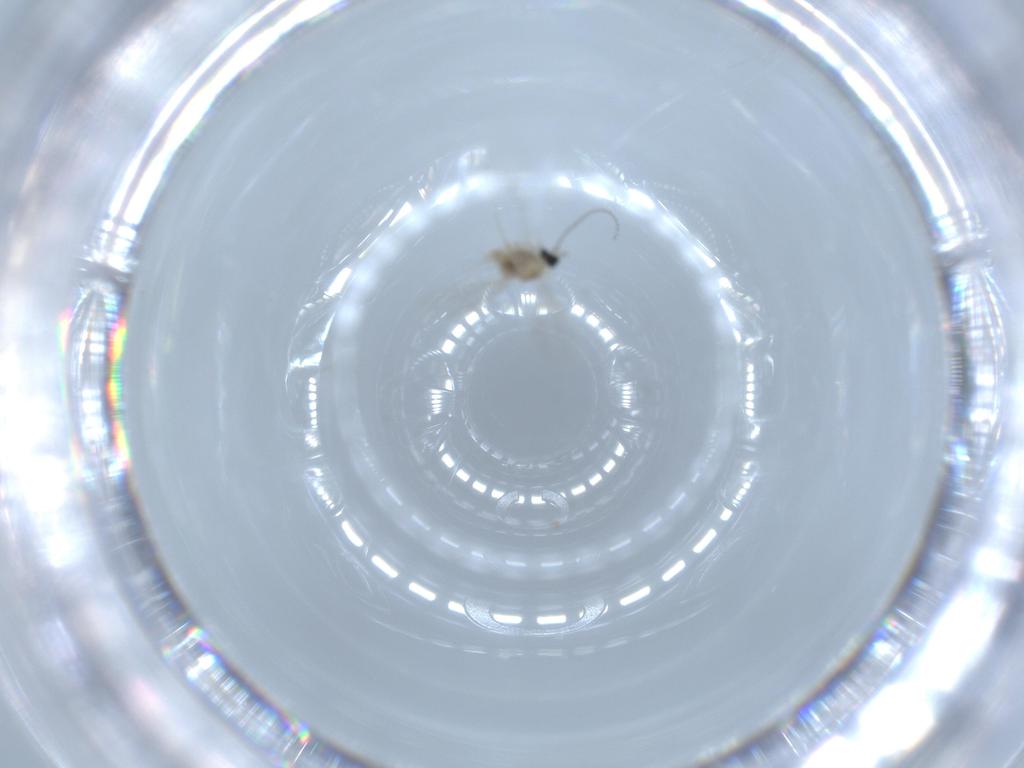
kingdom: Animalia
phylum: Arthropoda
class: Insecta
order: Diptera
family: Cecidomyiidae
